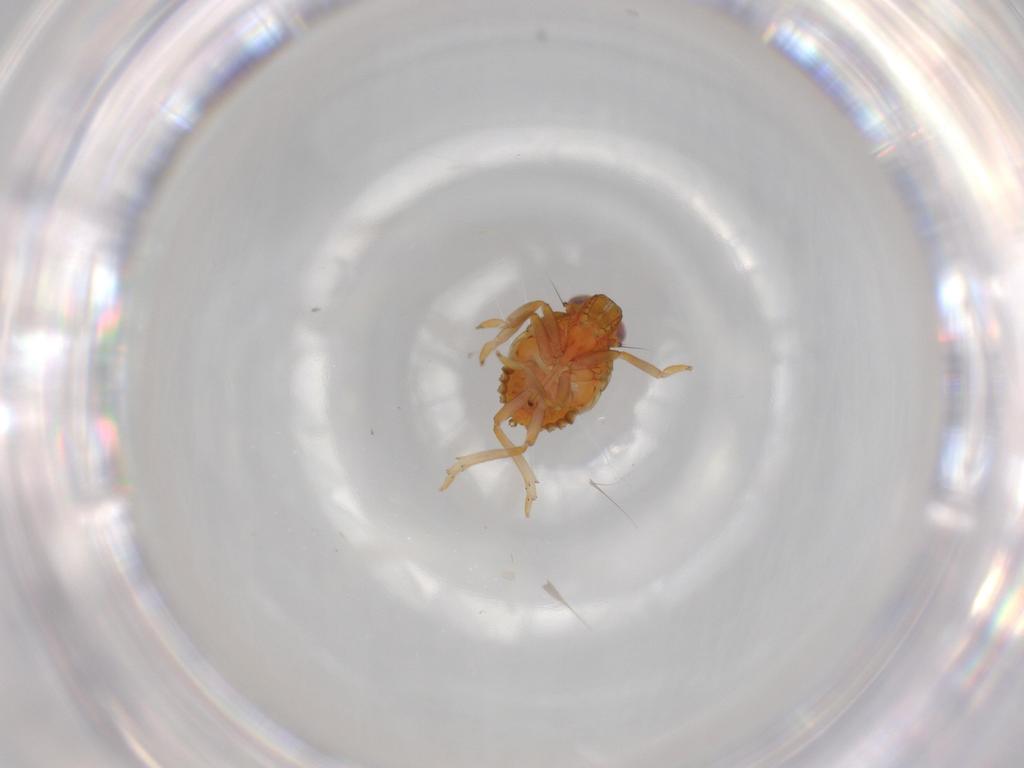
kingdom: Animalia
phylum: Arthropoda
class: Insecta
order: Hemiptera
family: Issidae
